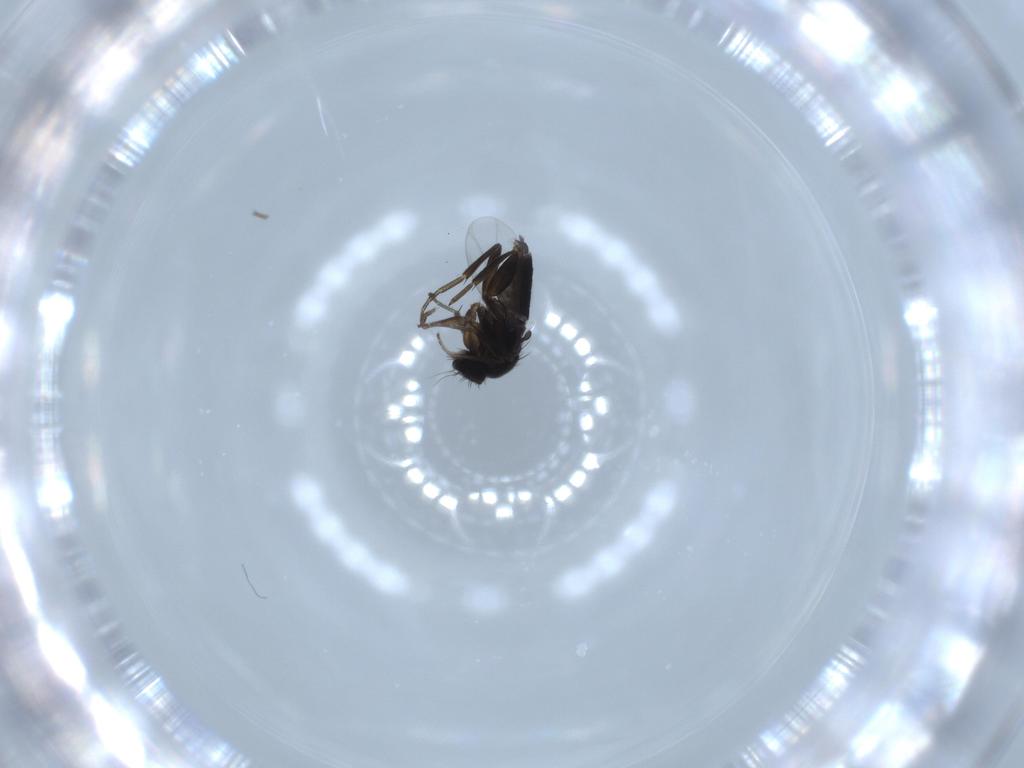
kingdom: Animalia
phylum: Arthropoda
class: Insecta
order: Diptera
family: Phoridae
